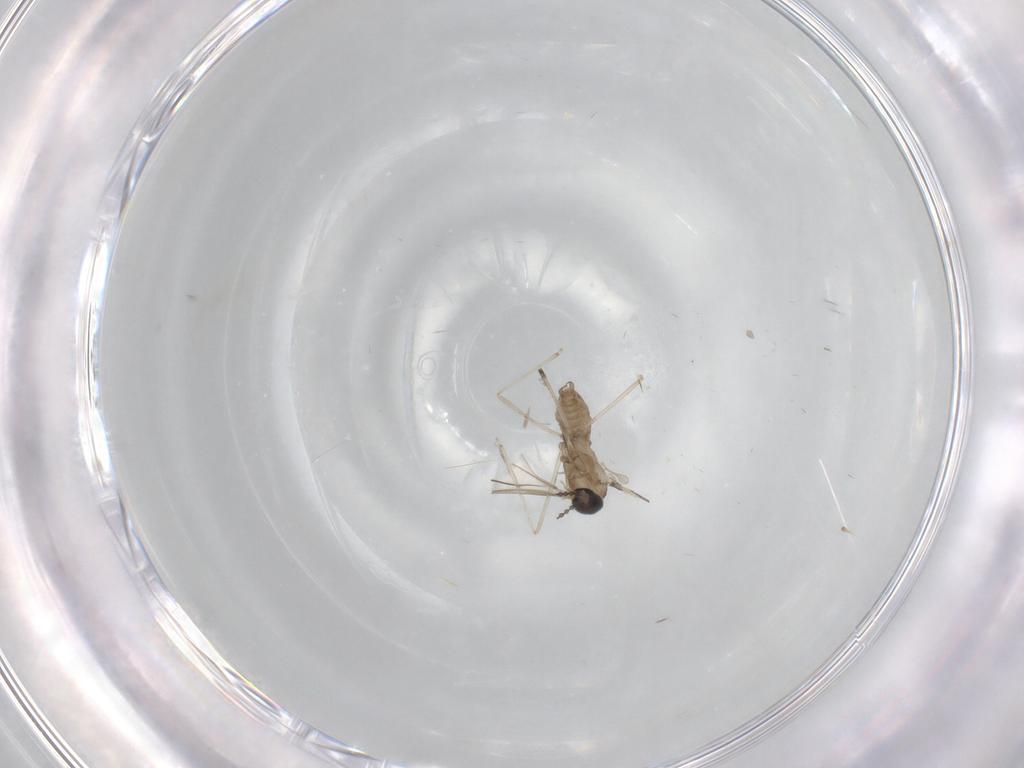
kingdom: Animalia
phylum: Arthropoda
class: Insecta
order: Diptera
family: Cecidomyiidae
